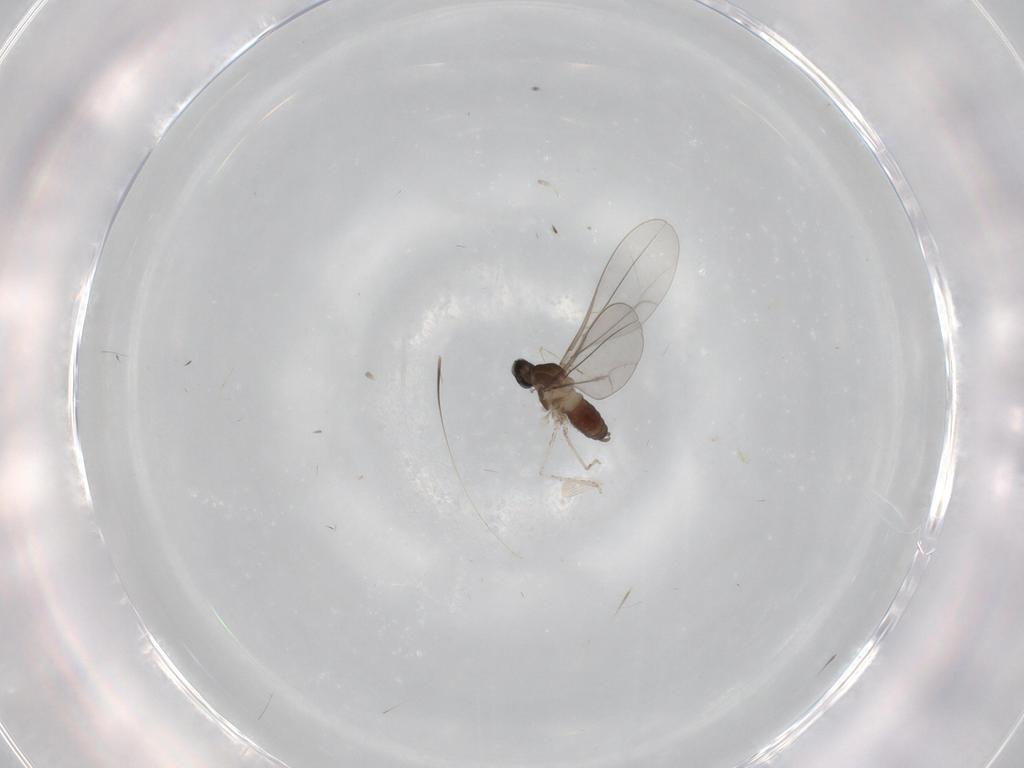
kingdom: Animalia
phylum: Arthropoda
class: Insecta
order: Diptera
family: Cecidomyiidae
